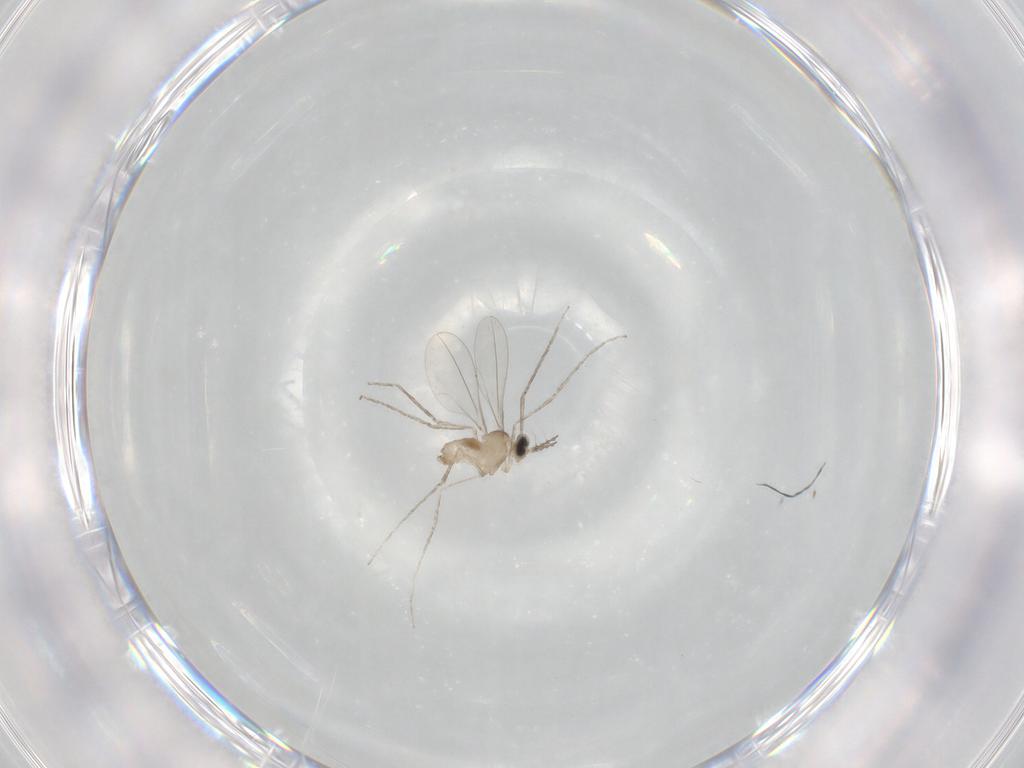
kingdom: Animalia
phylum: Arthropoda
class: Insecta
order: Diptera
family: Cecidomyiidae
